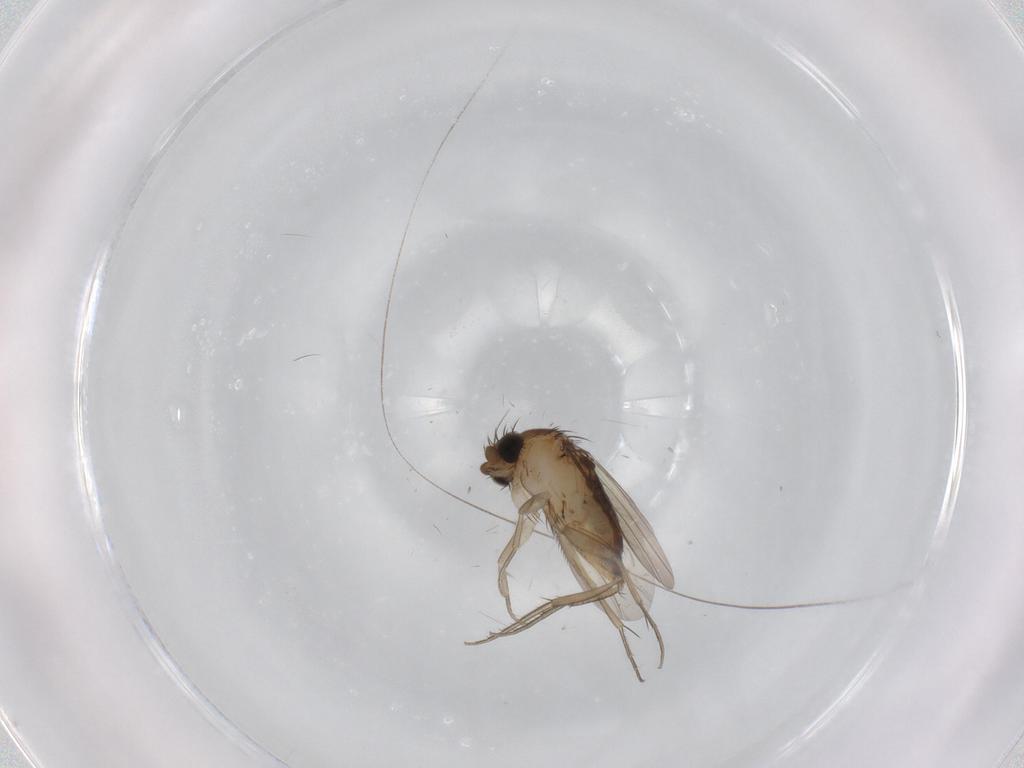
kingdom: Animalia
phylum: Arthropoda
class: Insecta
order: Diptera
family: Phoridae
